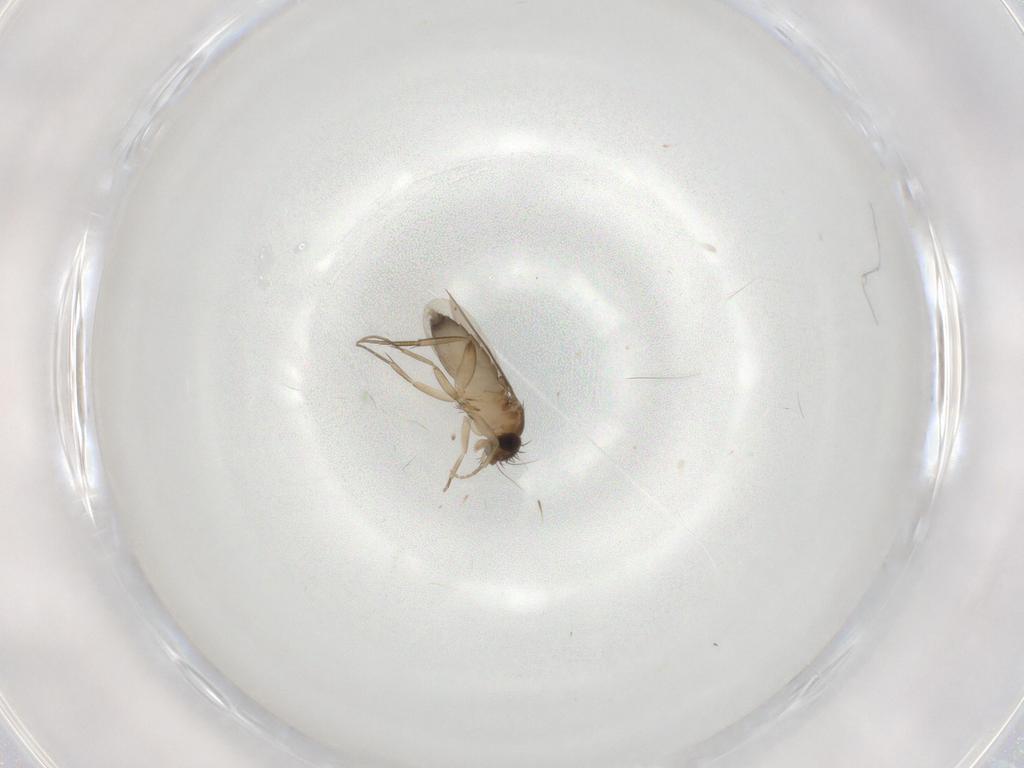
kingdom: Animalia
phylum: Arthropoda
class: Insecta
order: Diptera
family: Phoridae
